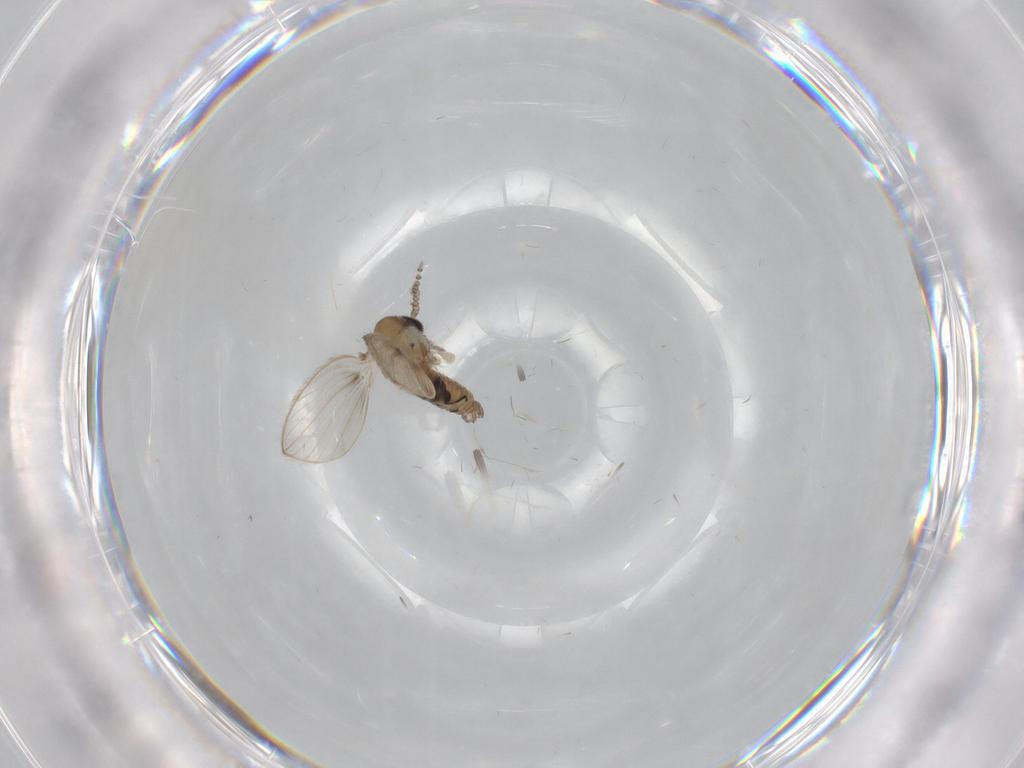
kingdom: Animalia
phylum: Arthropoda
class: Insecta
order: Diptera
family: Psychodidae
